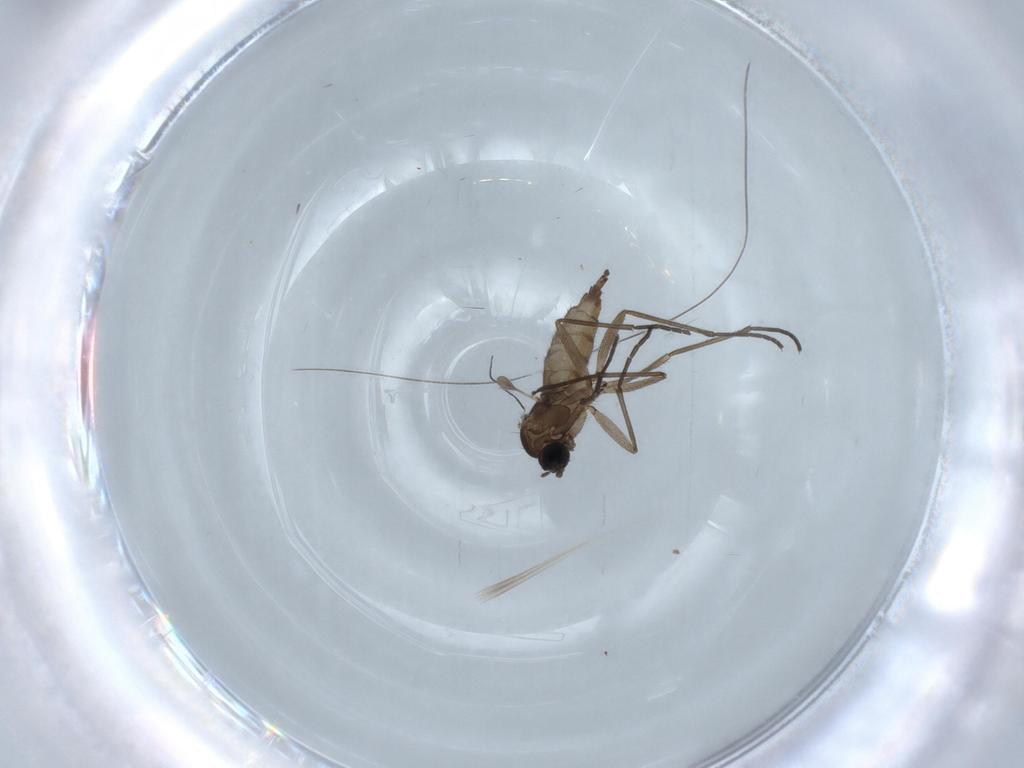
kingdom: Animalia
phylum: Arthropoda
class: Insecta
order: Diptera
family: Sciaridae
